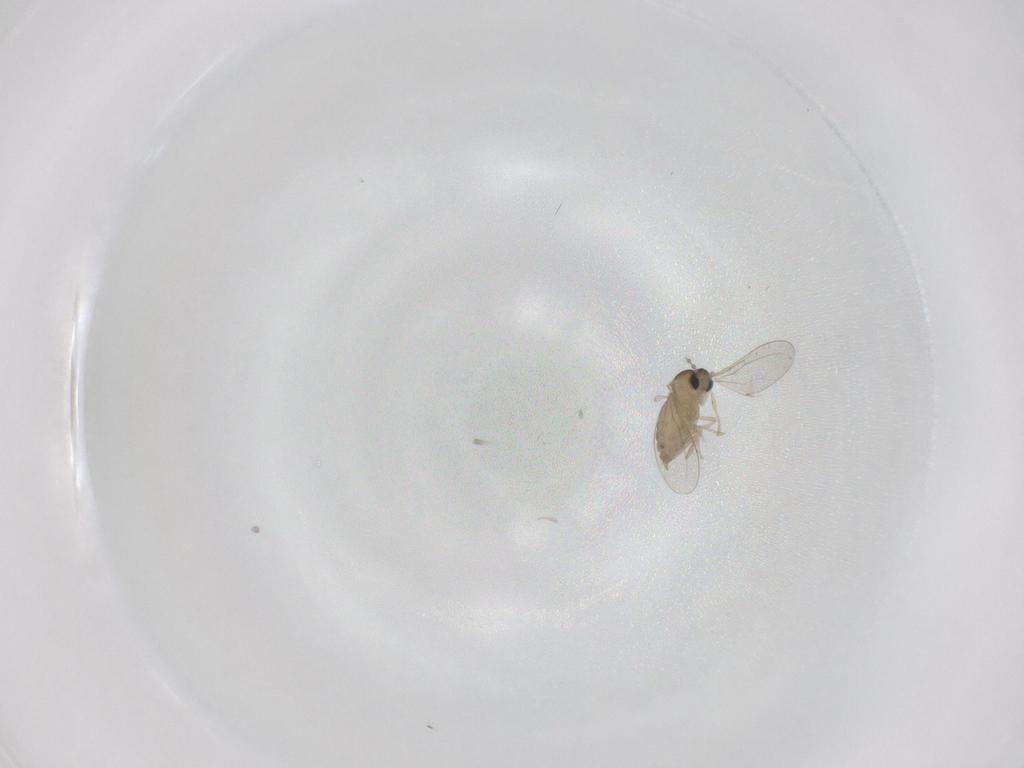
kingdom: Animalia
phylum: Arthropoda
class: Insecta
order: Diptera
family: Cecidomyiidae
